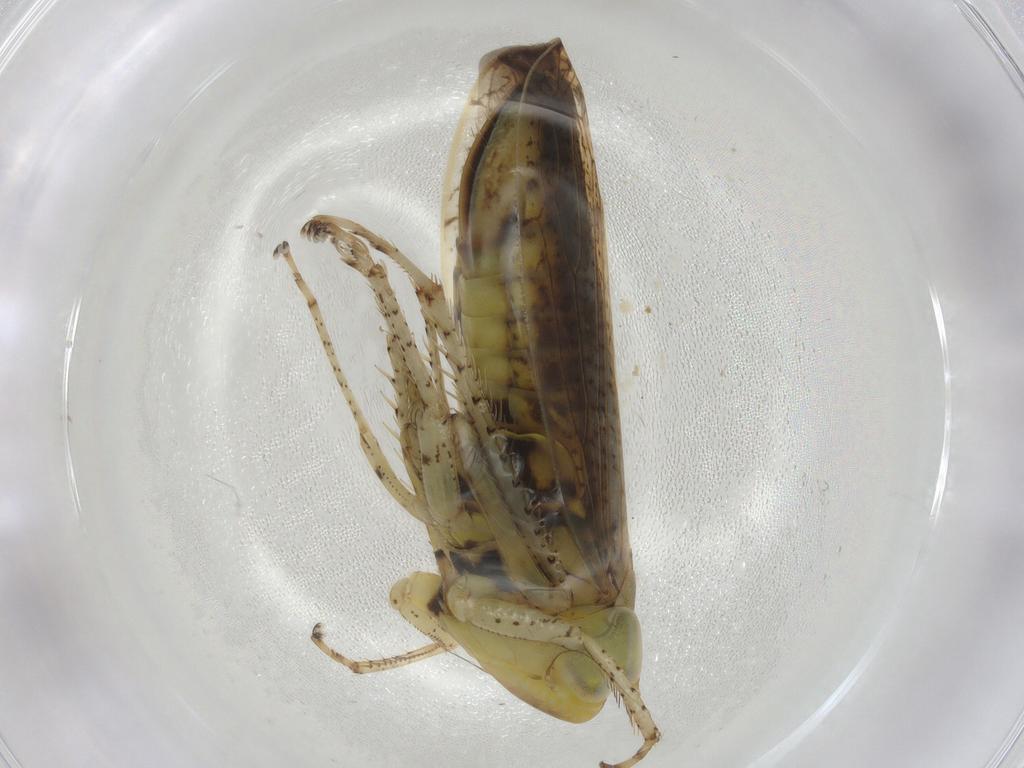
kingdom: Animalia
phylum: Arthropoda
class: Insecta
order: Hemiptera
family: Cicadellidae
